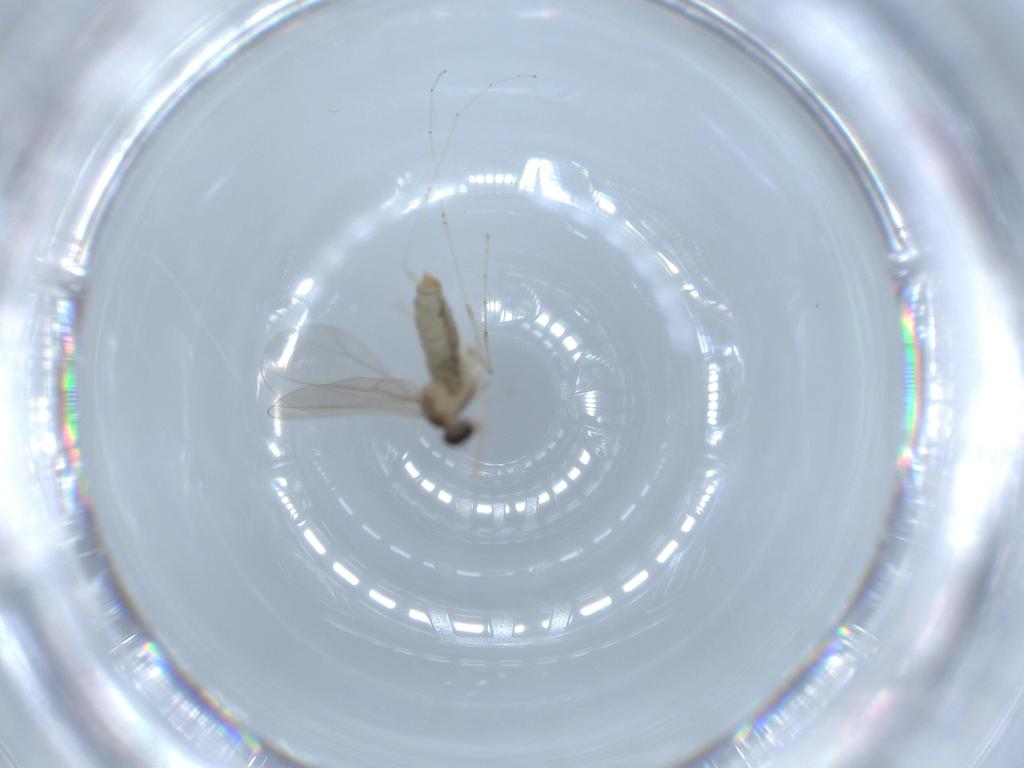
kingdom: Animalia
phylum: Arthropoda
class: Insecta
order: Diptera
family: Cecidomyiidae
